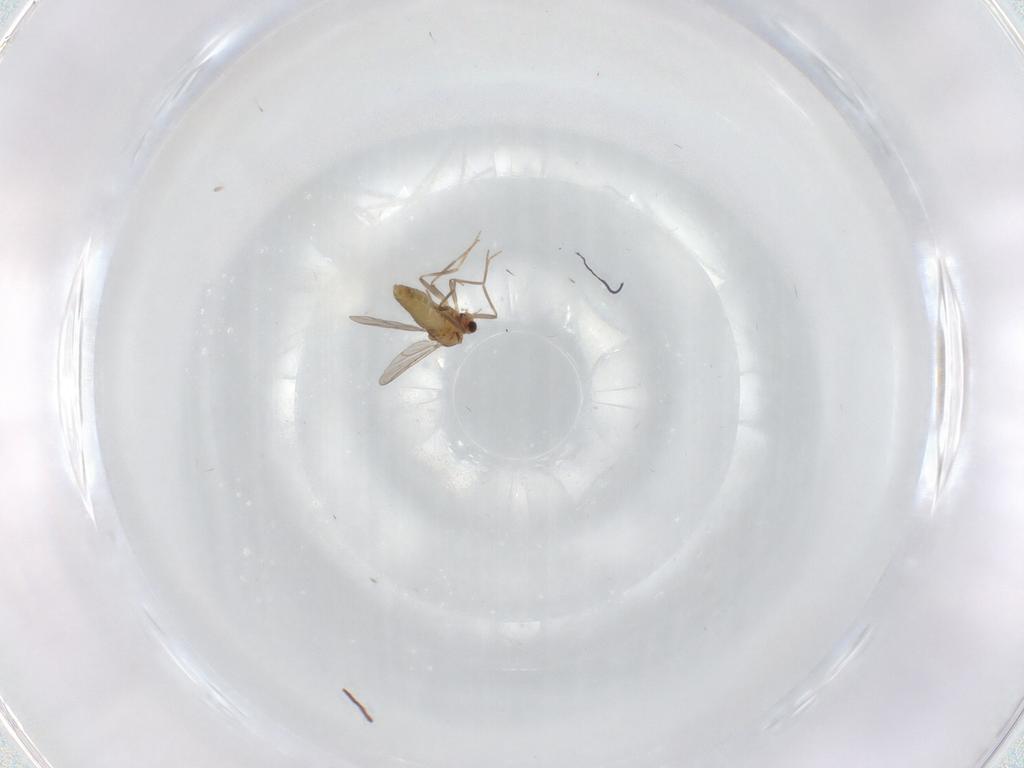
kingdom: Animalia
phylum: Arthropoda
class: Insecta
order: Diptera
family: Chironomidae
